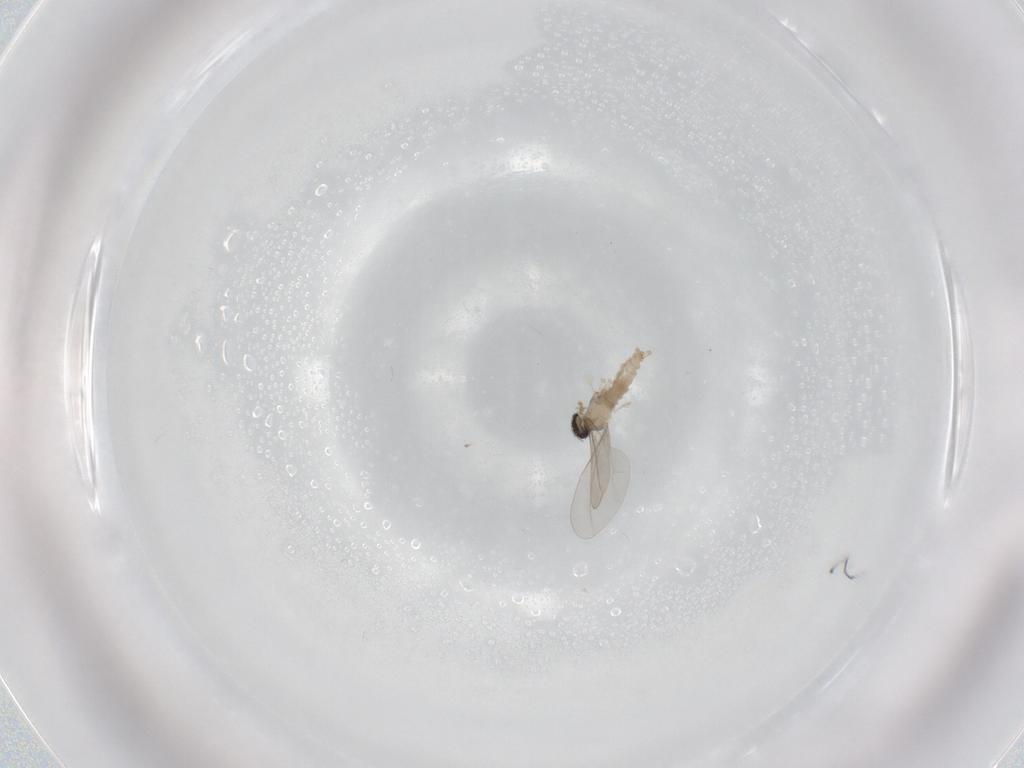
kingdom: Animalia
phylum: Arthropoda
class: Insecta
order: Diptera
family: Cecidomyiidae
